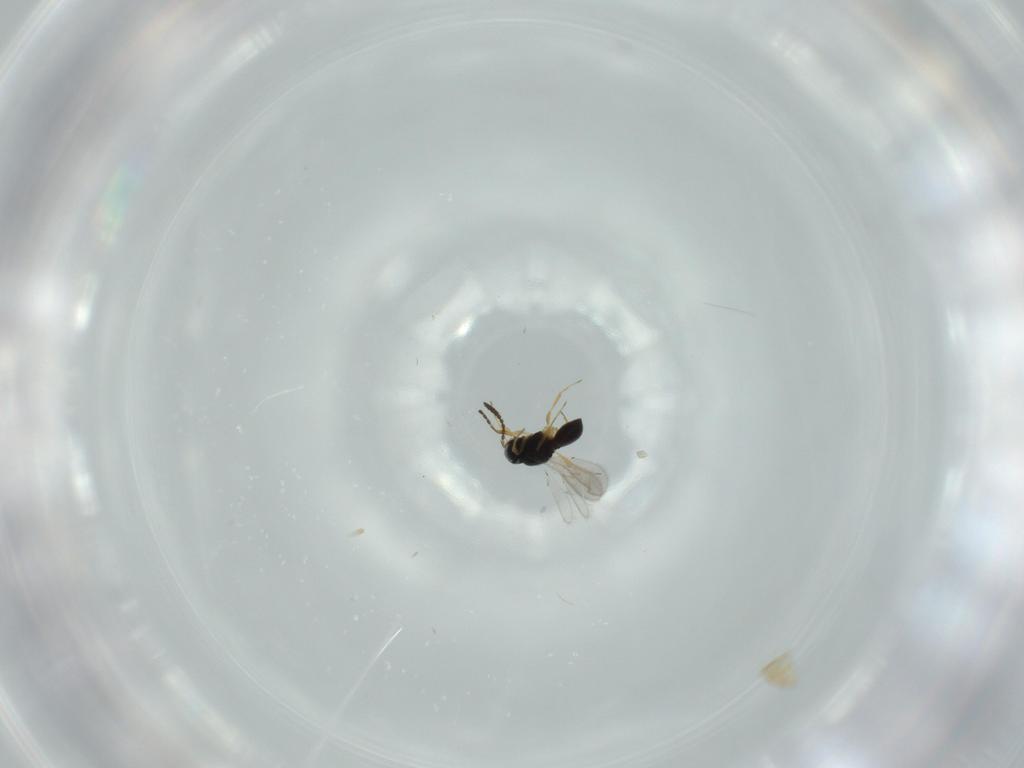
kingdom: Animalia
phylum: Arthropoda
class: Insecta
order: Hymenoptera
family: Scelionidae
